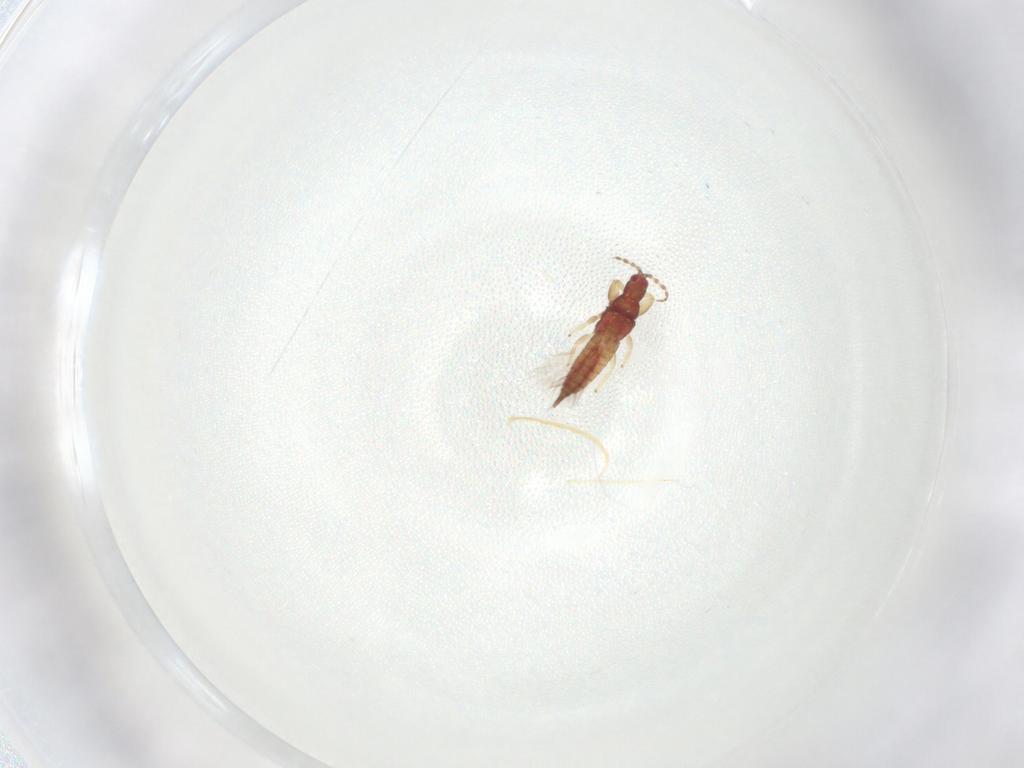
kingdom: Animalia
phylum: Arthropoda
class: Insecta
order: Thysanoptera
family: Phlaeothripidae
